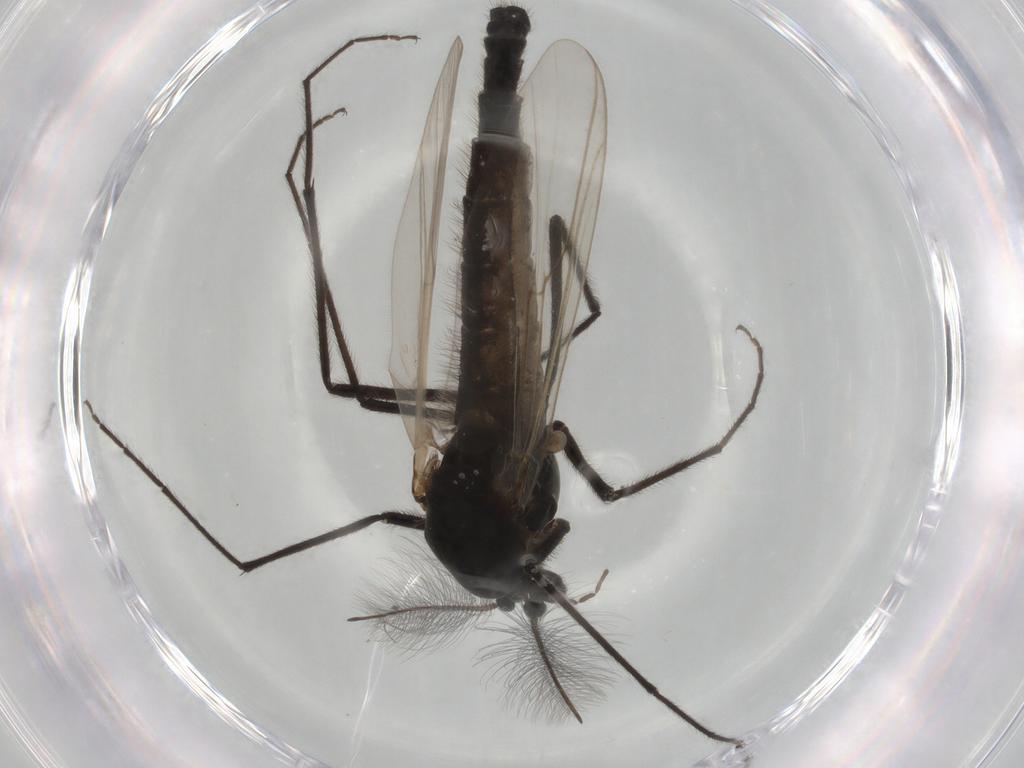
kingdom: Animalia
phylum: Arthropoda
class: Insecta
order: Diptera
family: Chironomidae
